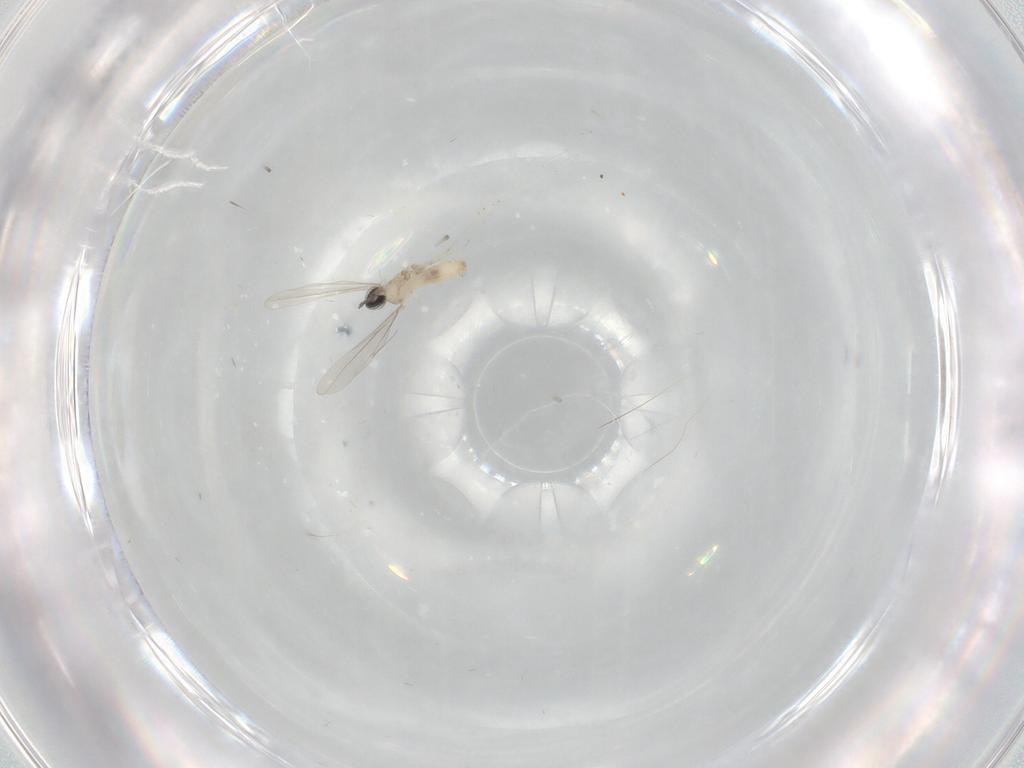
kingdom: Animalia
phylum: Arthropoda
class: Insecta
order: Diptera
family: Cecidomyiidae
